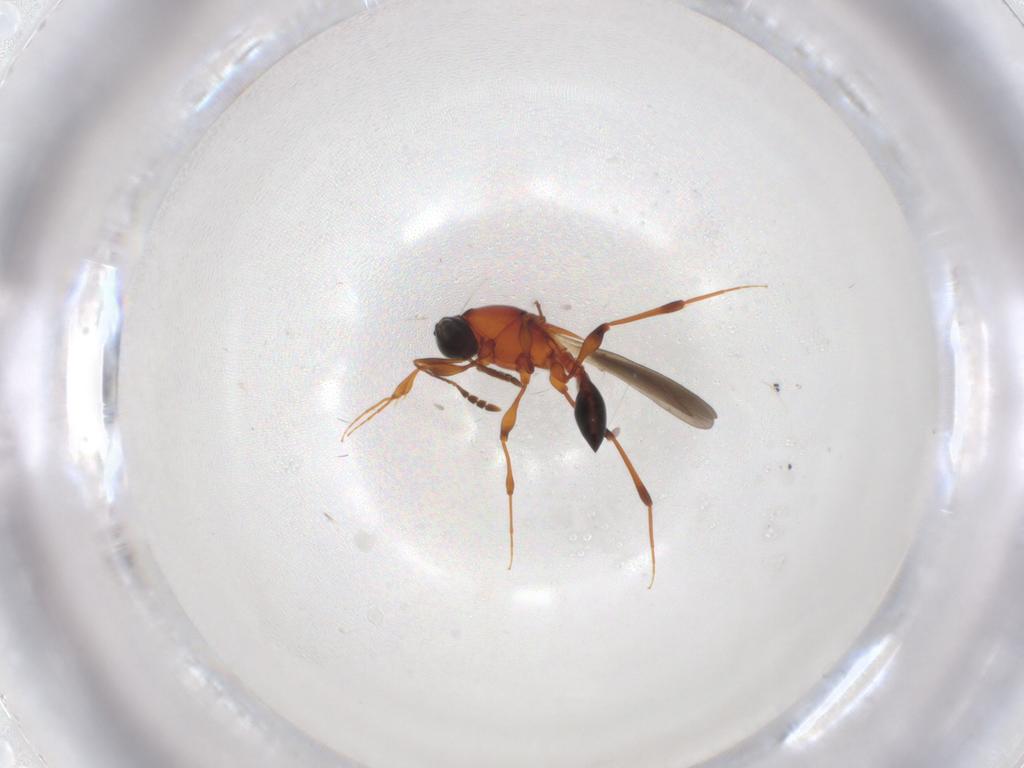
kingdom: Animalia
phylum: Arthropoda
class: Insecta
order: Hymenoptera
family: Platygastridae
